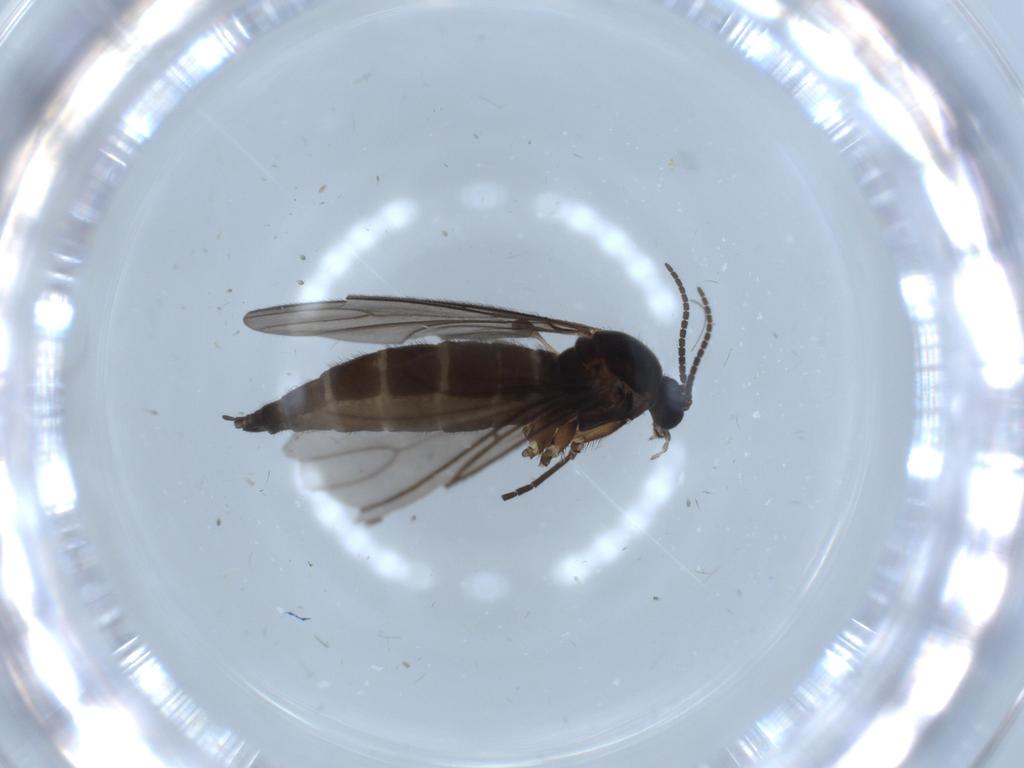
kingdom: Animalia
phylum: Arthropoda
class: Insecta
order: Diptera
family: Sciaridae
